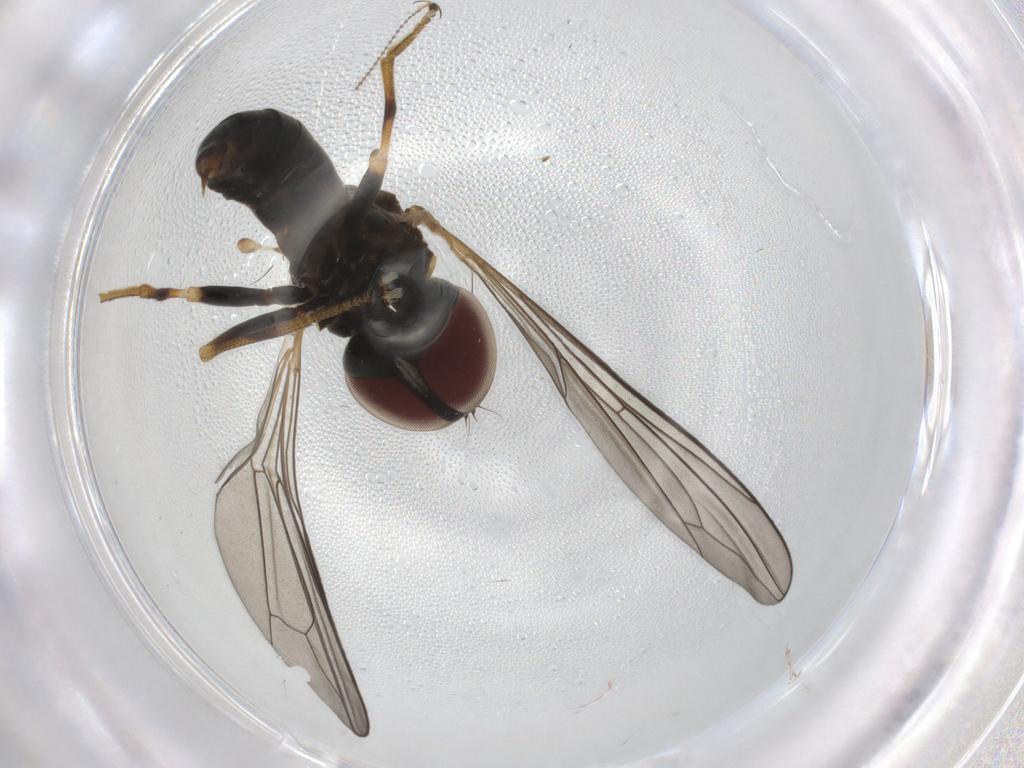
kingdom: Animalia
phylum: Arthropoda
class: Insecta
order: Diptera
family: Pipunculidae
